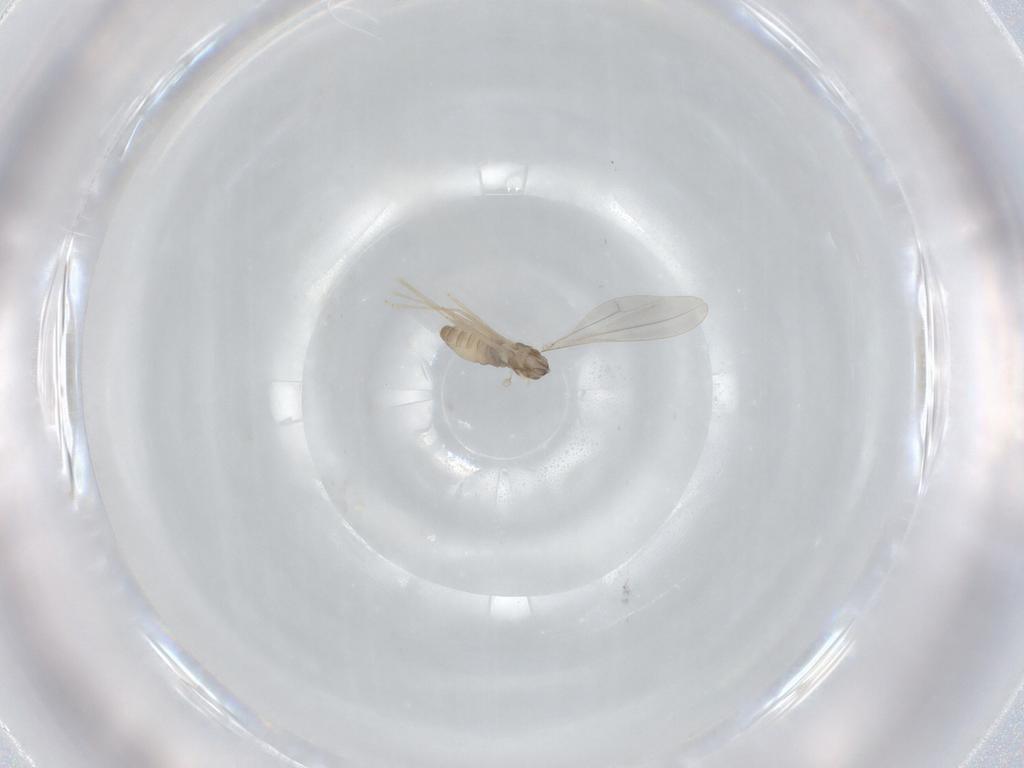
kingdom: Animalia
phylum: Arthropoda
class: Insecta
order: Diptera
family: Cecidomyiidae
